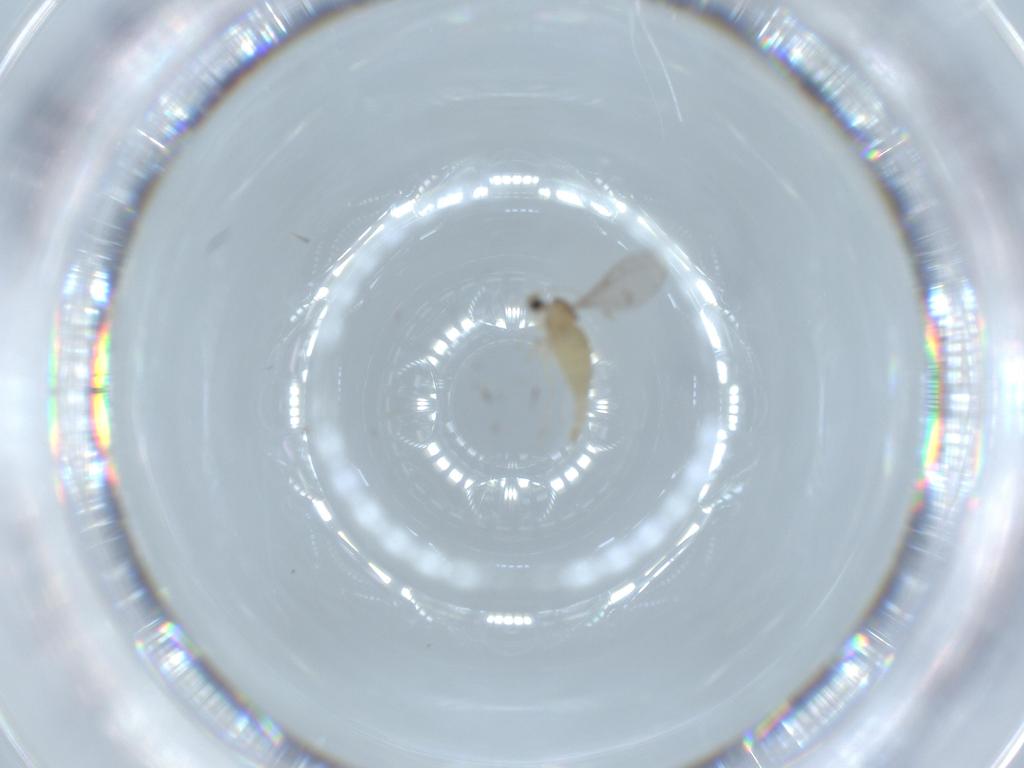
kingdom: Animalia
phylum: Arthropoda
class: Insecta
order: Diptera
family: Cecidomyiidae
